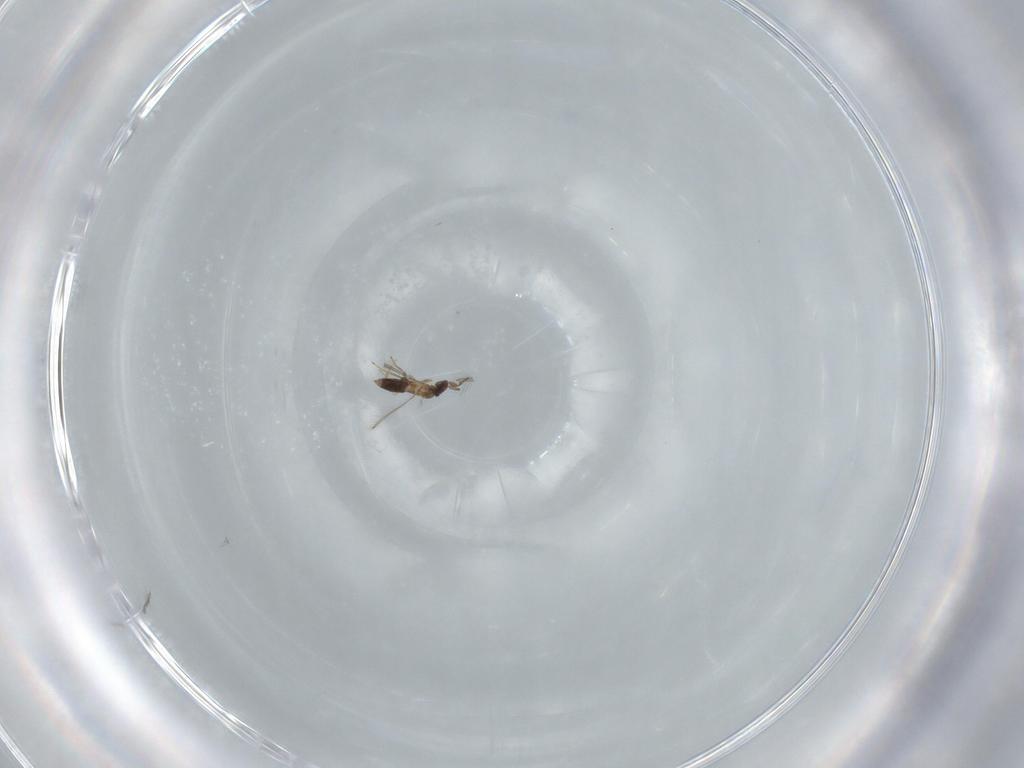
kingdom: Animalia
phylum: Arthropoda
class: Insecta
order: Hymenoptera
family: Mymaridae
